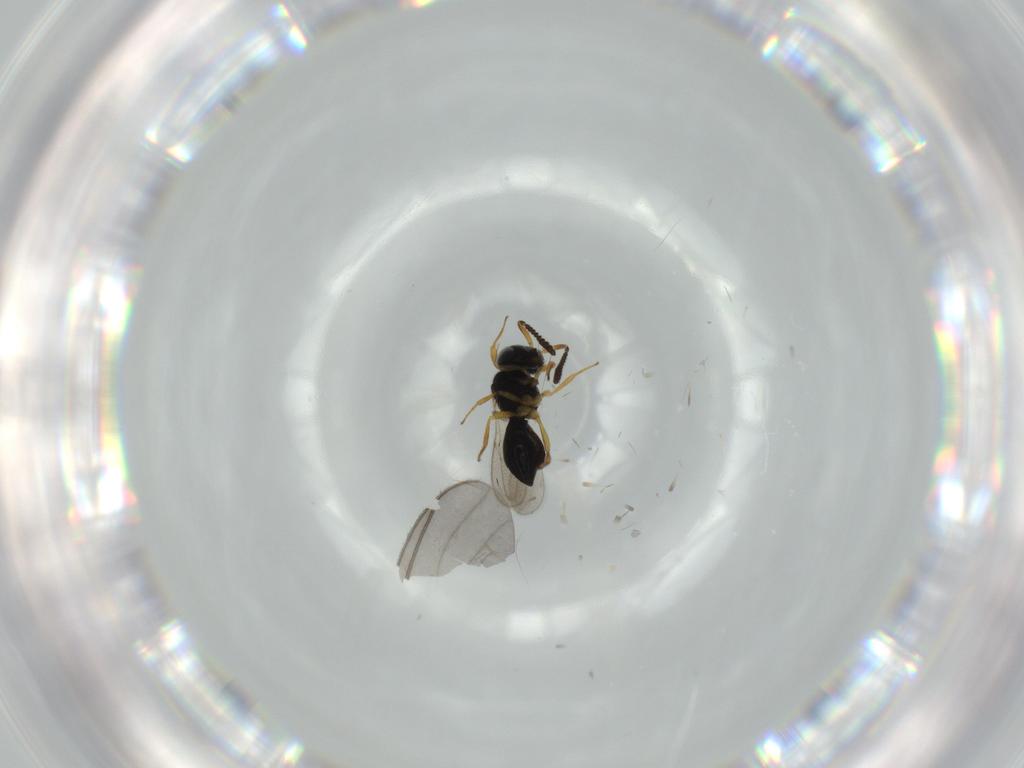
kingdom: Animalia
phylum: Arthropoda
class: Insecta
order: Hymenoptera
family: Scelionidae
